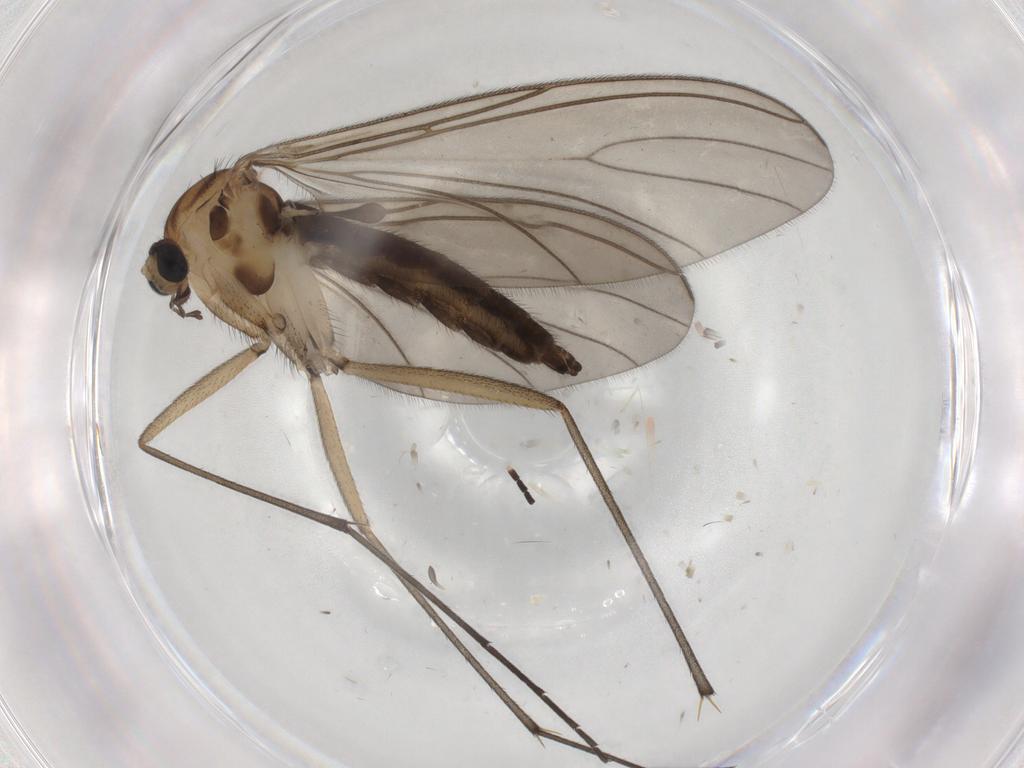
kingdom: Animalia
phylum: Arthropoda
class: Insecta
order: Diptera
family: Sciaridae
